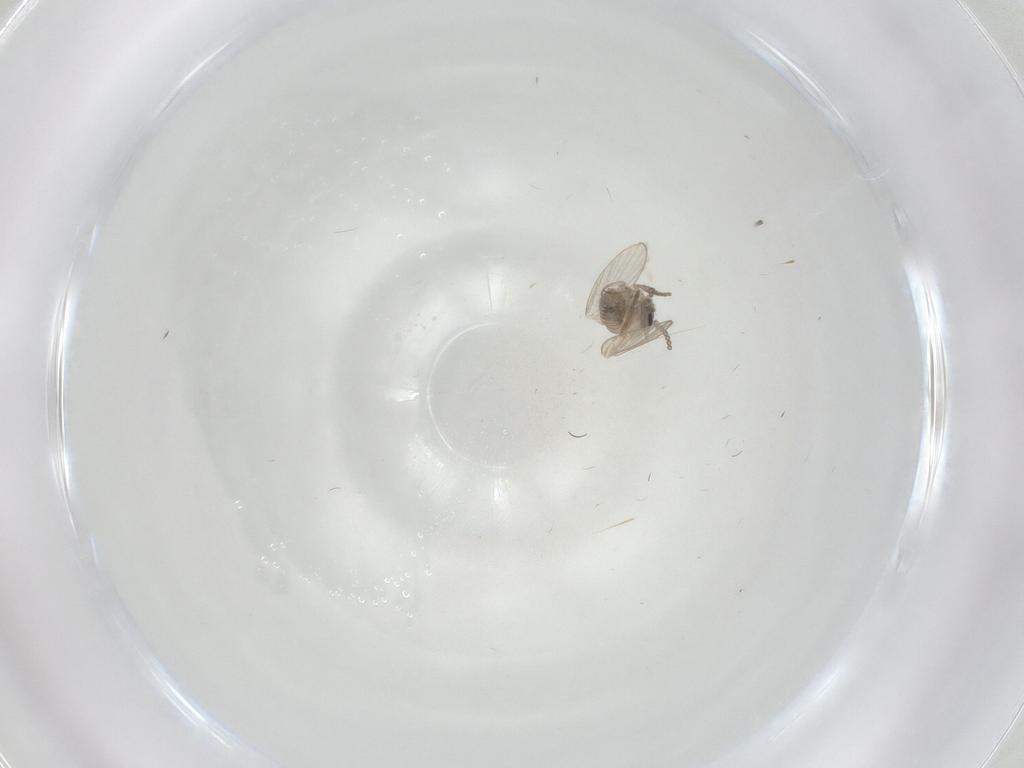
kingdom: Animalia
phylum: Arthropoda
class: Insecta
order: Diptera
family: Psychodidae
